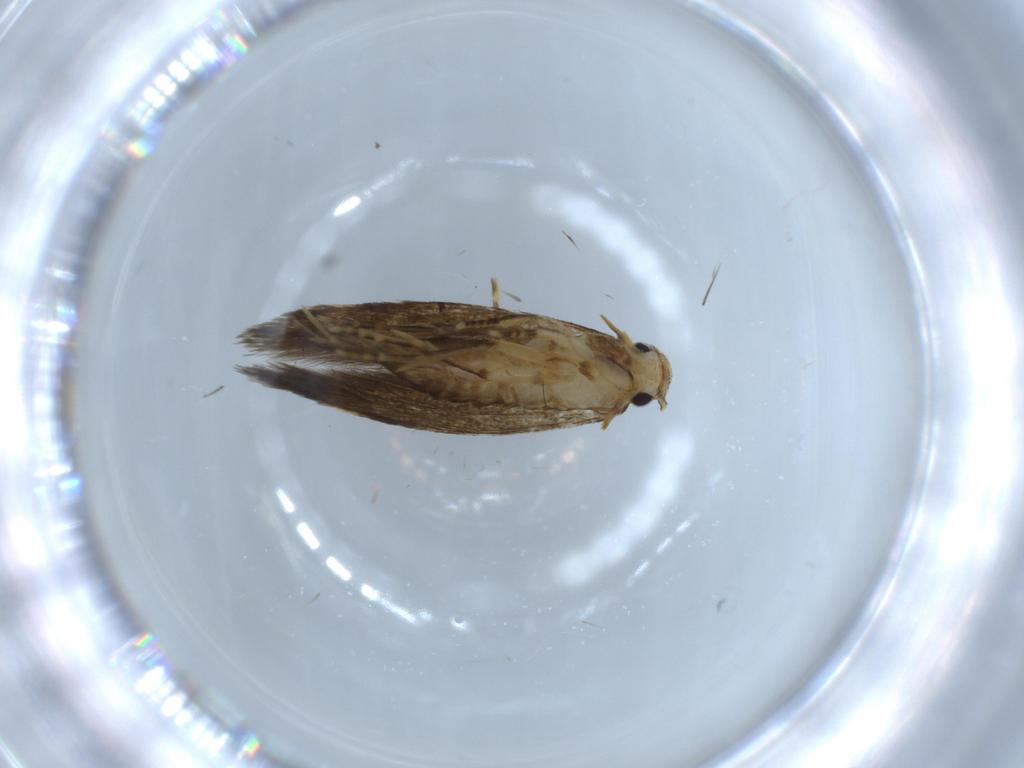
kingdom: Animalia
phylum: Arthropoda
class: Insecta
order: Lepidoptera
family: Tineidae
